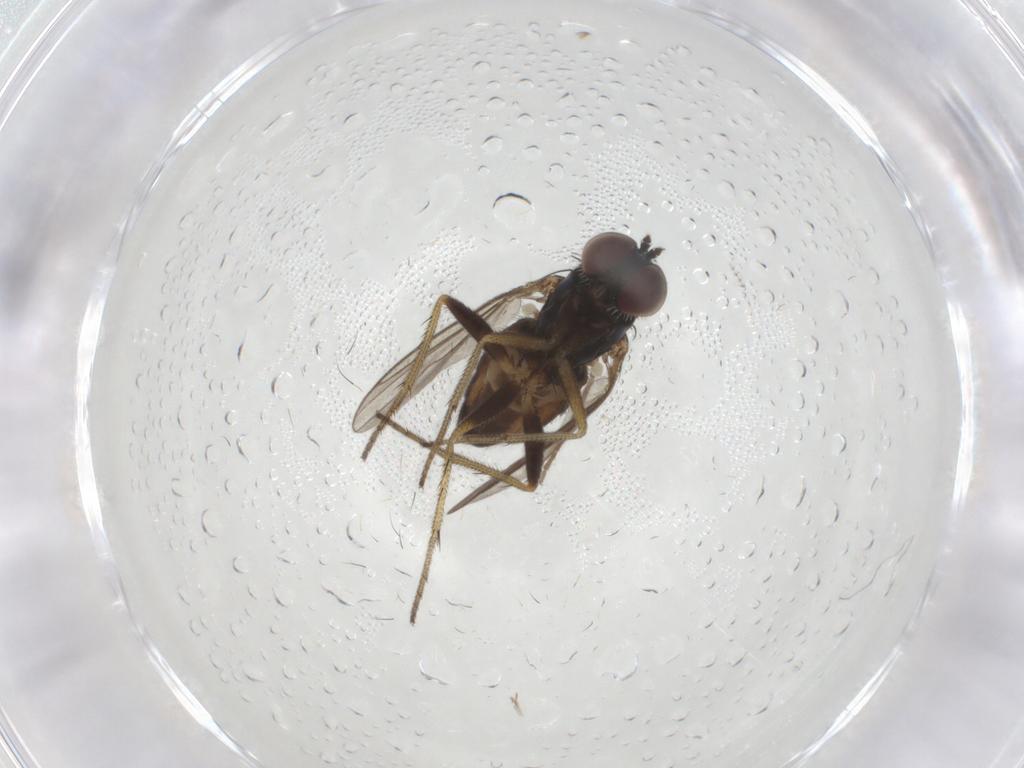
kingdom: Animalia
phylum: Arthropoda
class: Insecta
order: Diptera
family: Dolichopodidae
